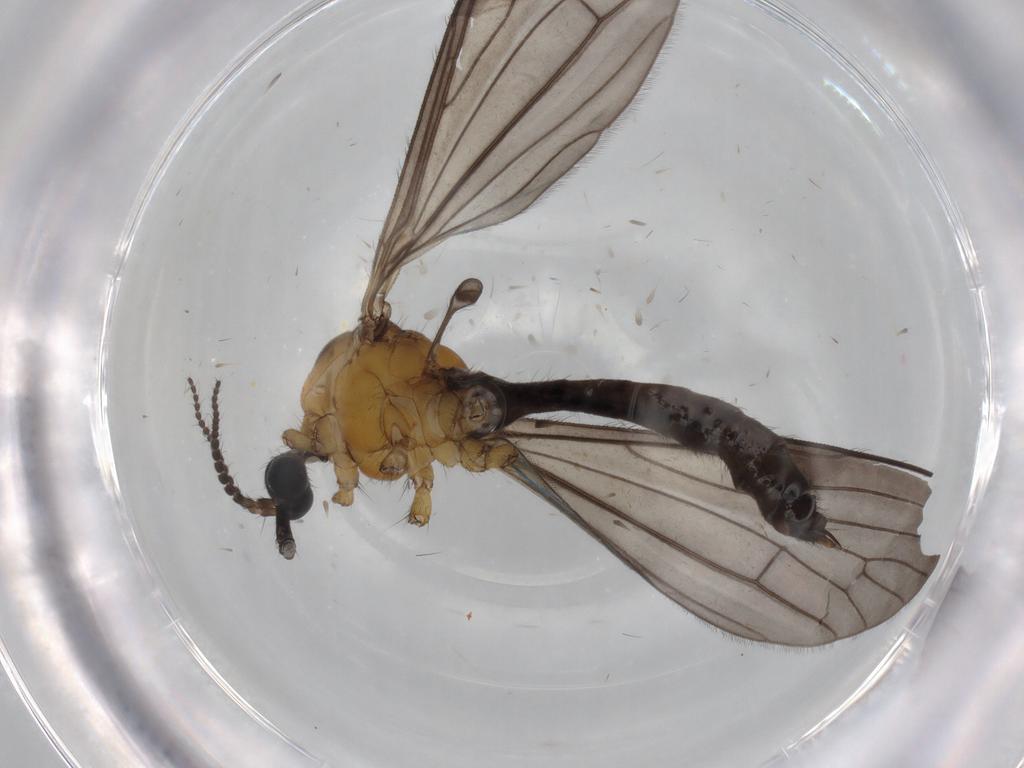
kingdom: Animalia
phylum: Arthropoda
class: Insecta
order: Diptera
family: Limoniidae
